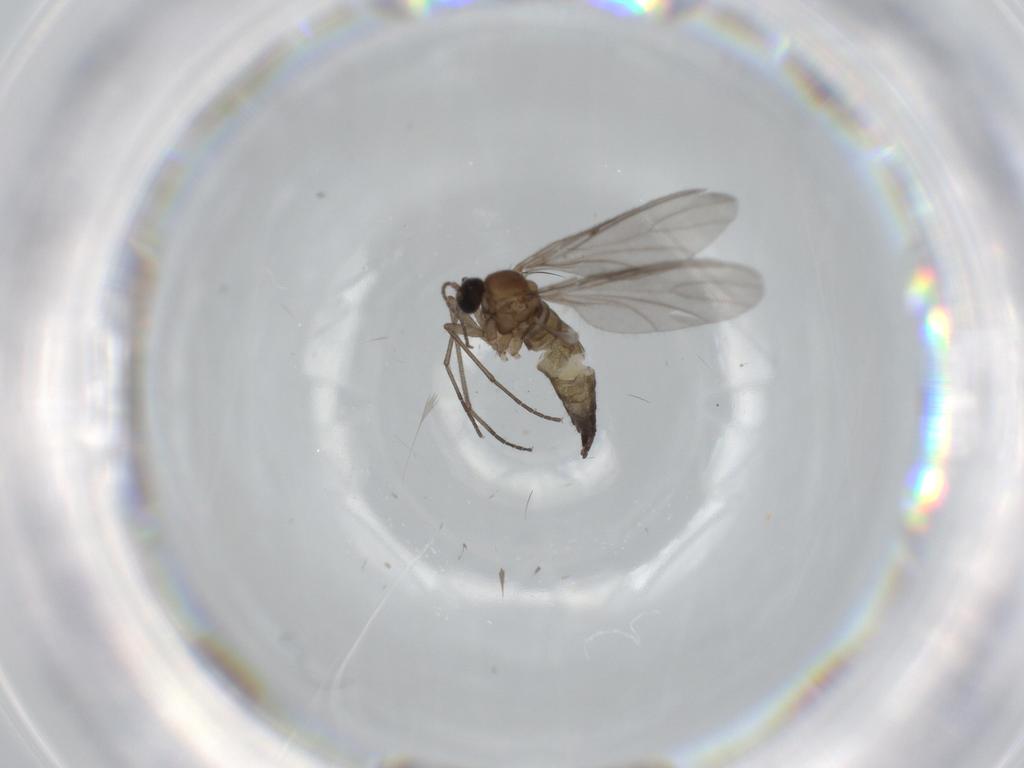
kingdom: Animalia
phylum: Arthropoda
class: Insecta
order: Diptera
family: Sciaridae
